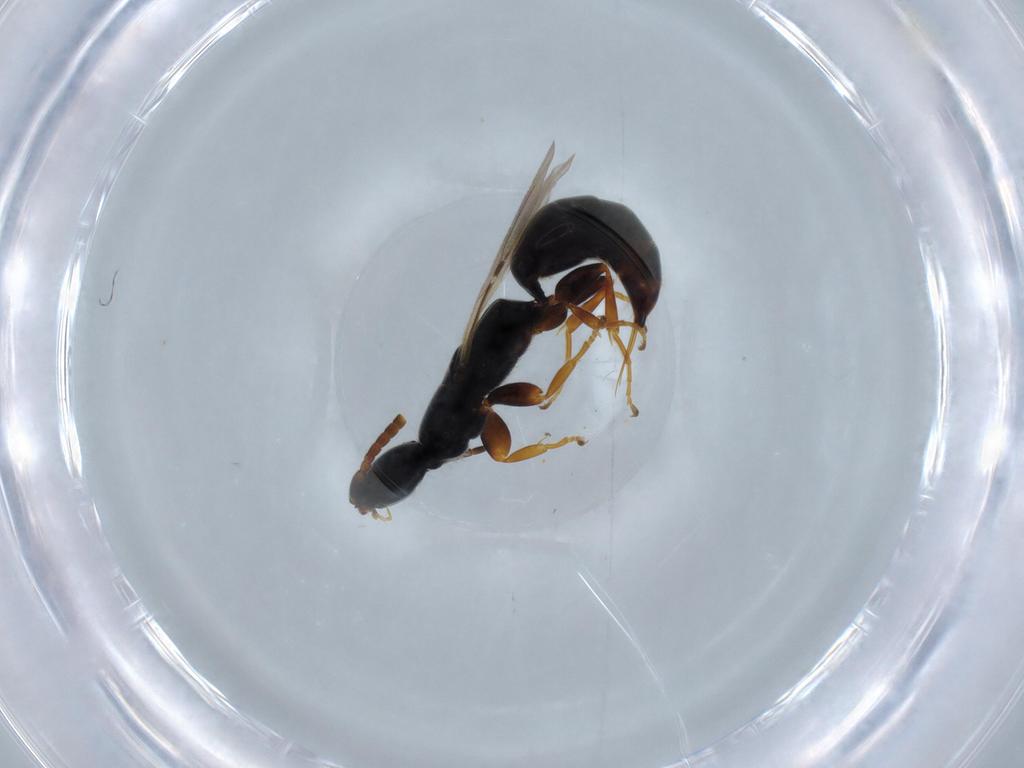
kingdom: Animalia
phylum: Arthropoda
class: Insecta
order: Hymenoptera
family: Bethylidae
